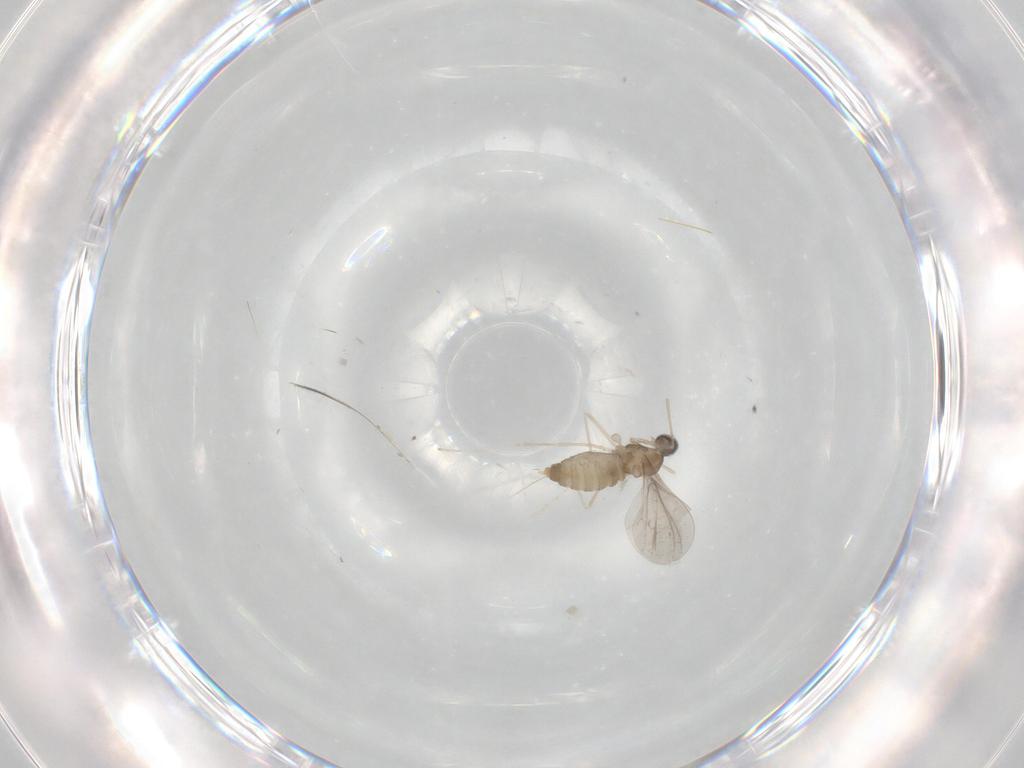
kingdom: Animalia
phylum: Arthropoda
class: Insecta
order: Diptera
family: Cecidomyiidae
